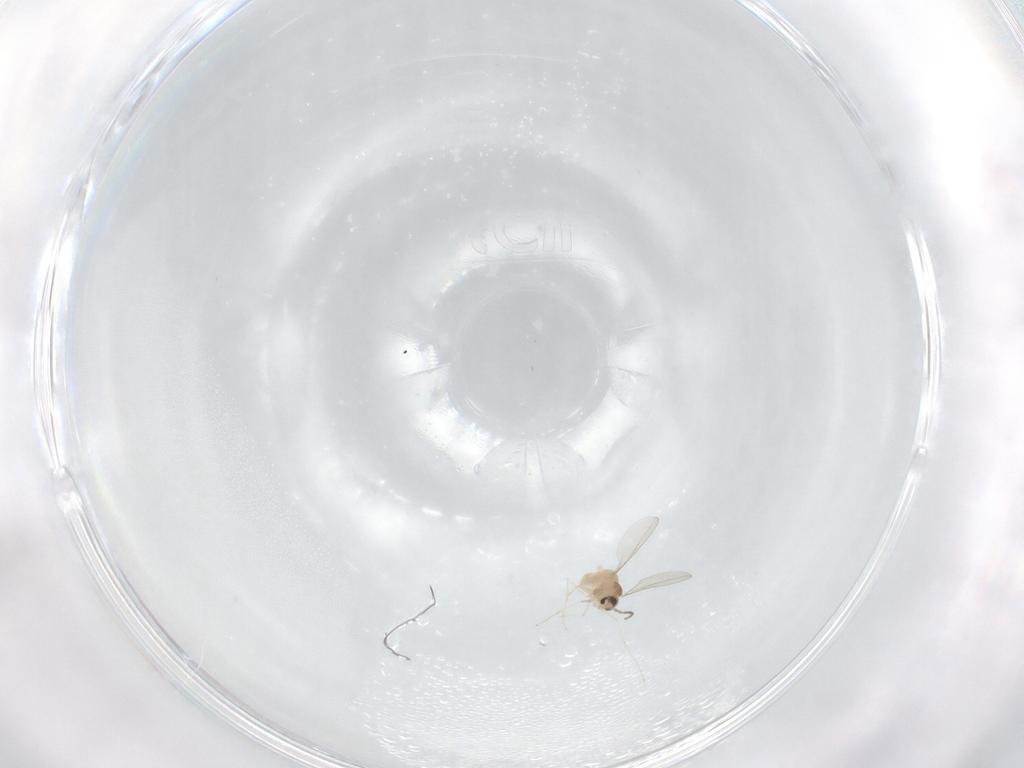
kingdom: Animalia
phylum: Arthropoda
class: Insecta
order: Diptera
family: Cecidomyiidae
